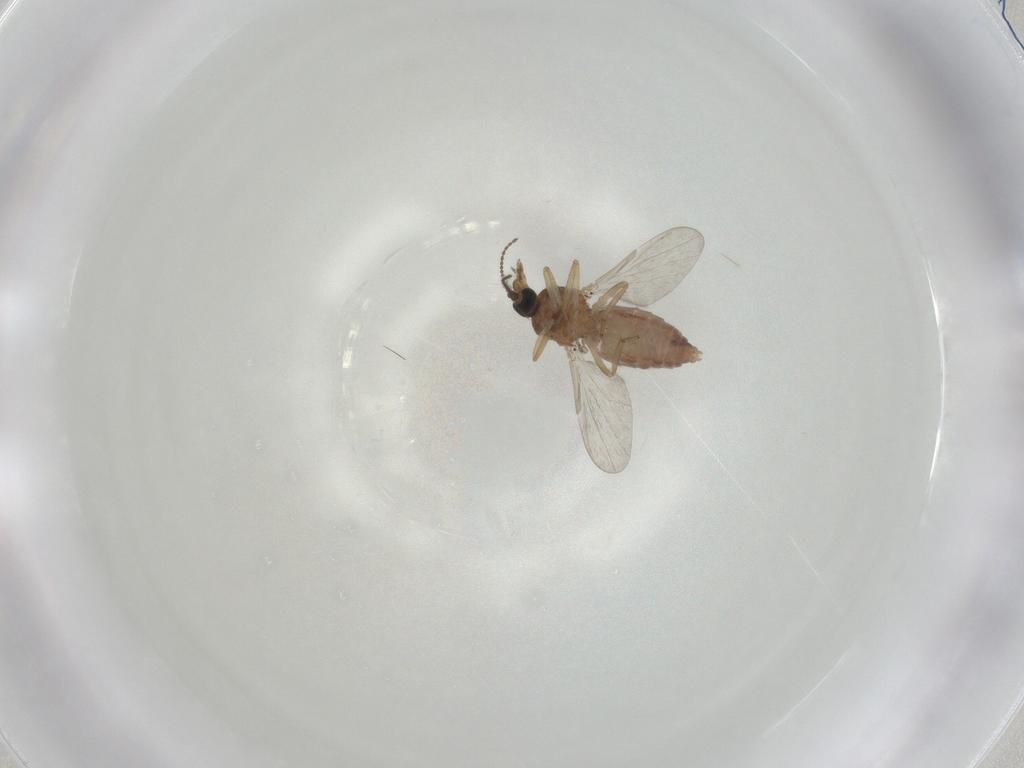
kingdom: Animalia
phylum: Arthropoda
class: Insecta
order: Diptera
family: Ceratopogonidae
